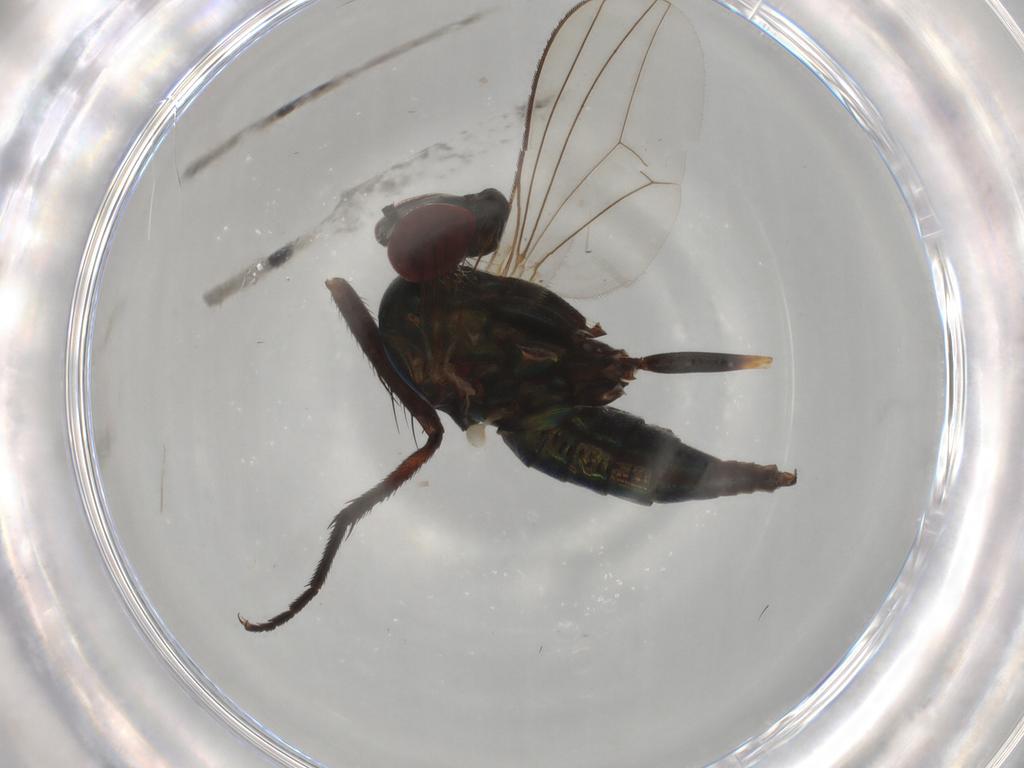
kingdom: Animalia
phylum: Arthropoda
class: Insecta
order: Diptera
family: Dolichopodidae
